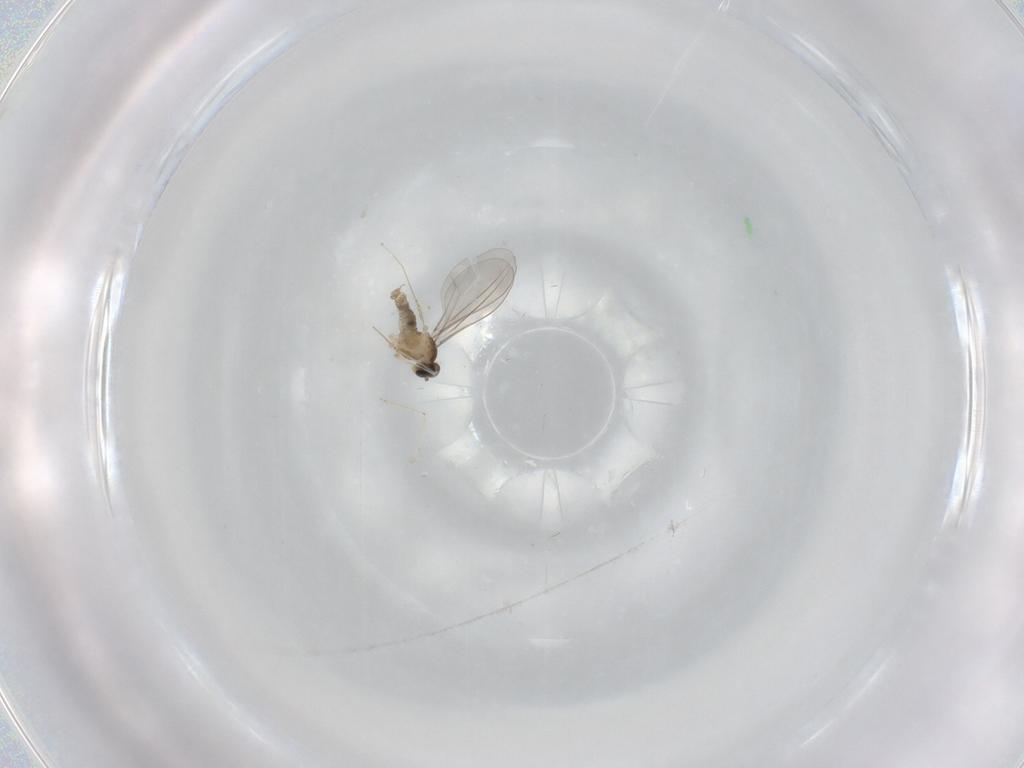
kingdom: Animalia
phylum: Arthropoda
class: Insecta
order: Diptera
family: Cecidomyiidae
